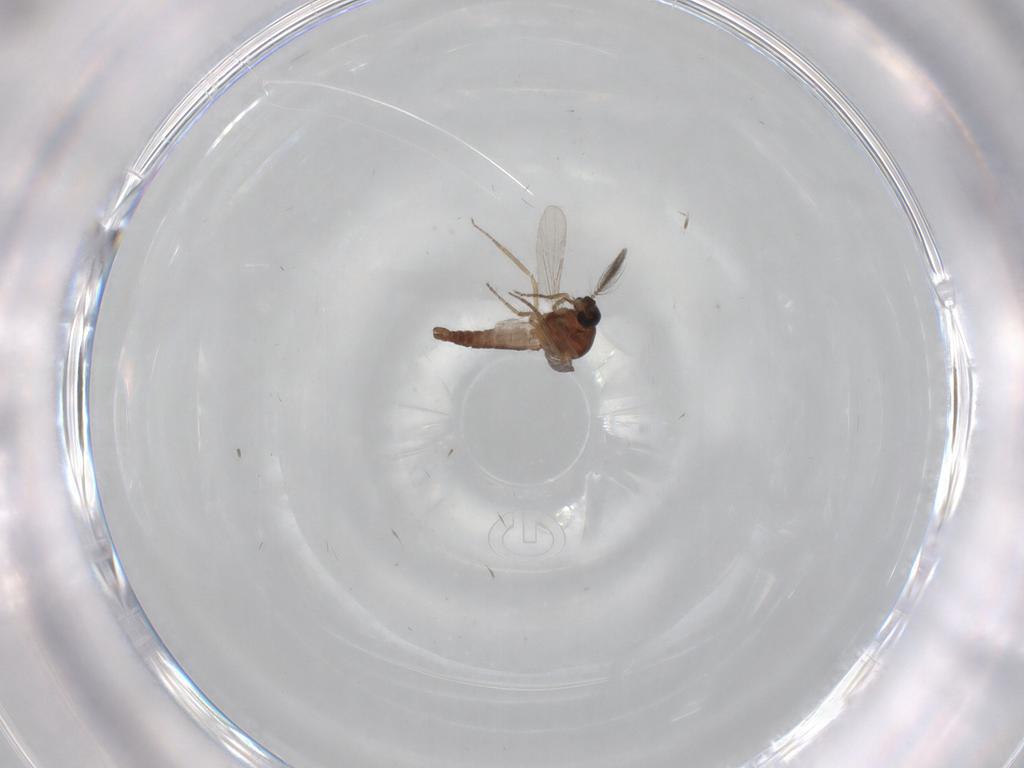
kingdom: Animalia
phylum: Arthropoda
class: Insecta
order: Diptera
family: Ceratopogonidae
